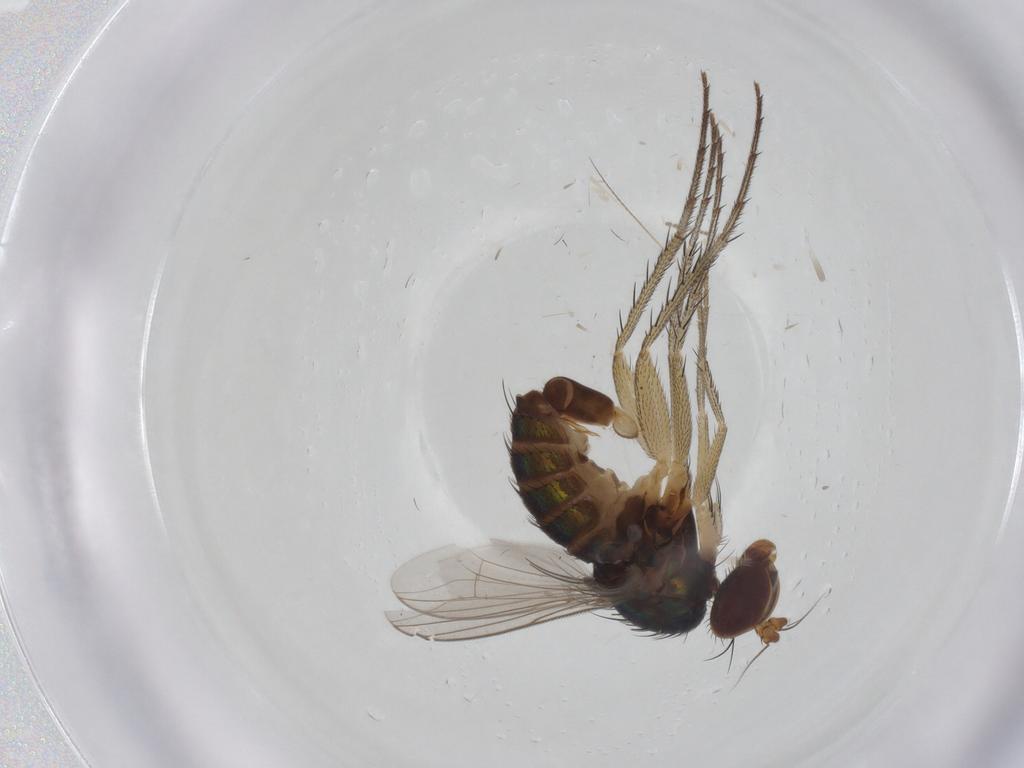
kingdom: Animalia
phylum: Arthropoda
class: Insecta
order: Diptera
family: Dolichopodidae
